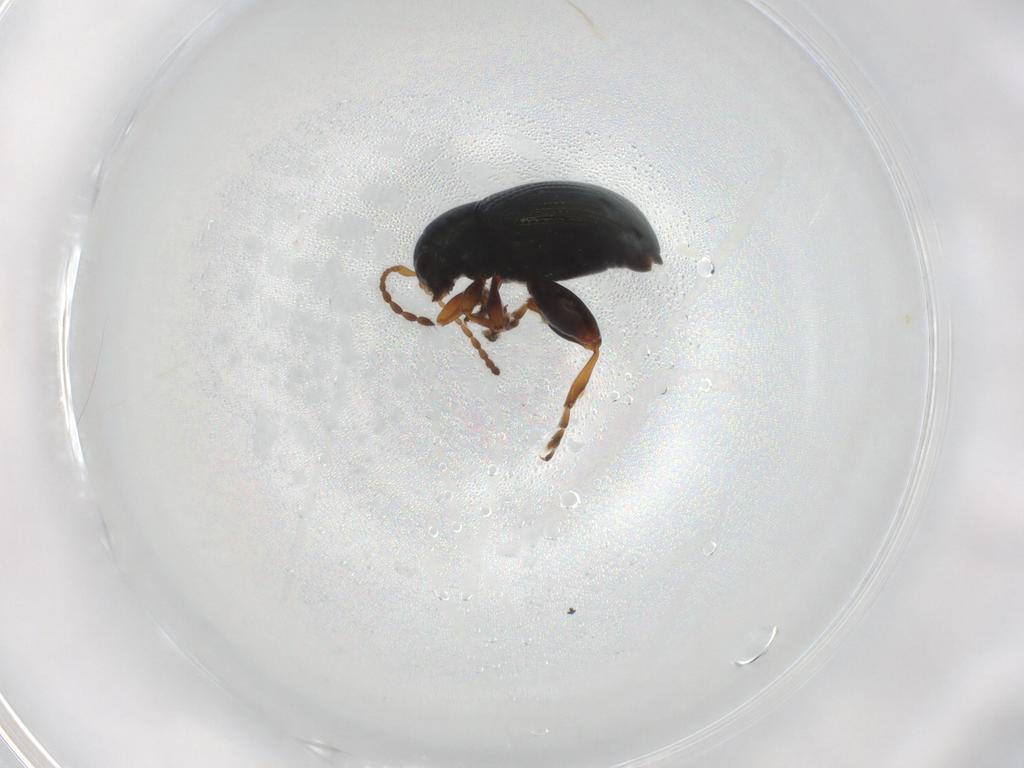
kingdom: Animalia
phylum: Arthropoda
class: Insecta
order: Coleoptera
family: Chrysomelidae
